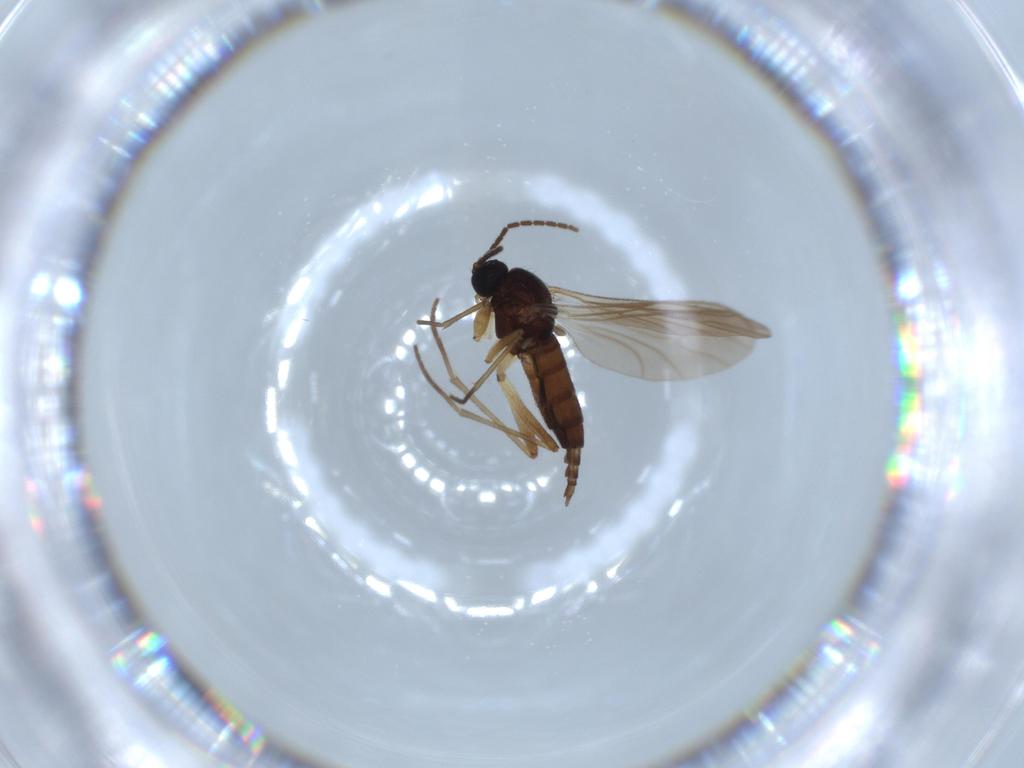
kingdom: Animalia
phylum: Arthropoda
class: Insecta
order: Diptera
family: Sciaridae
